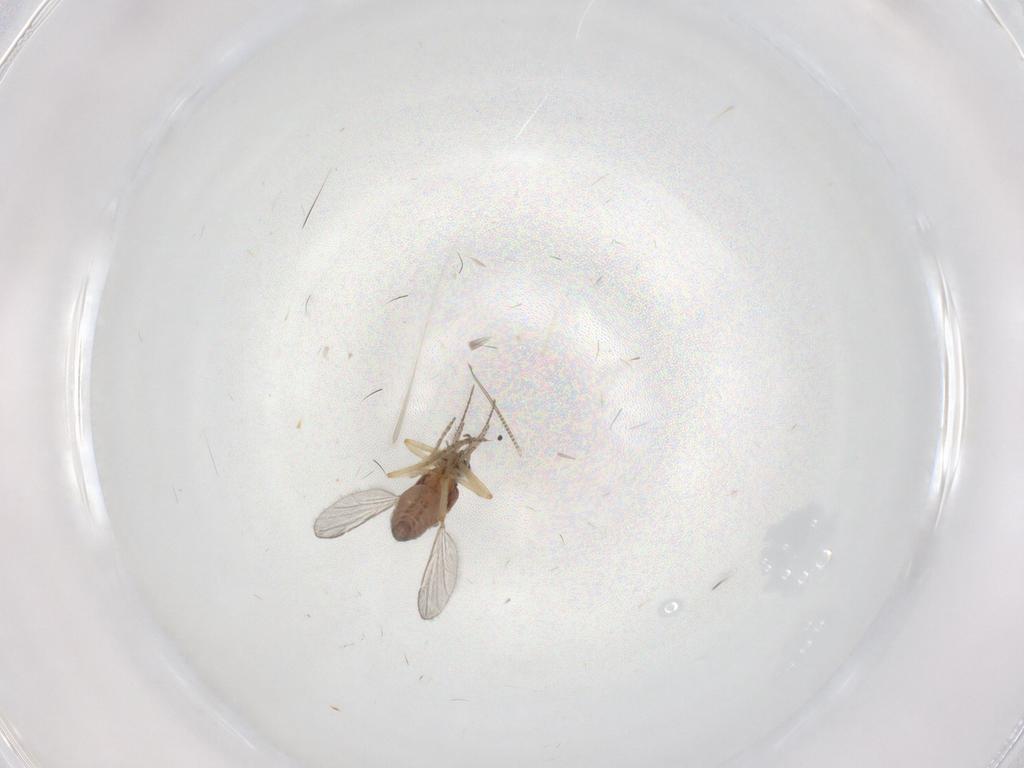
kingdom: Animalia
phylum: Arthropoda
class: Insecta
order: Diptera
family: Ceratopogonidae
